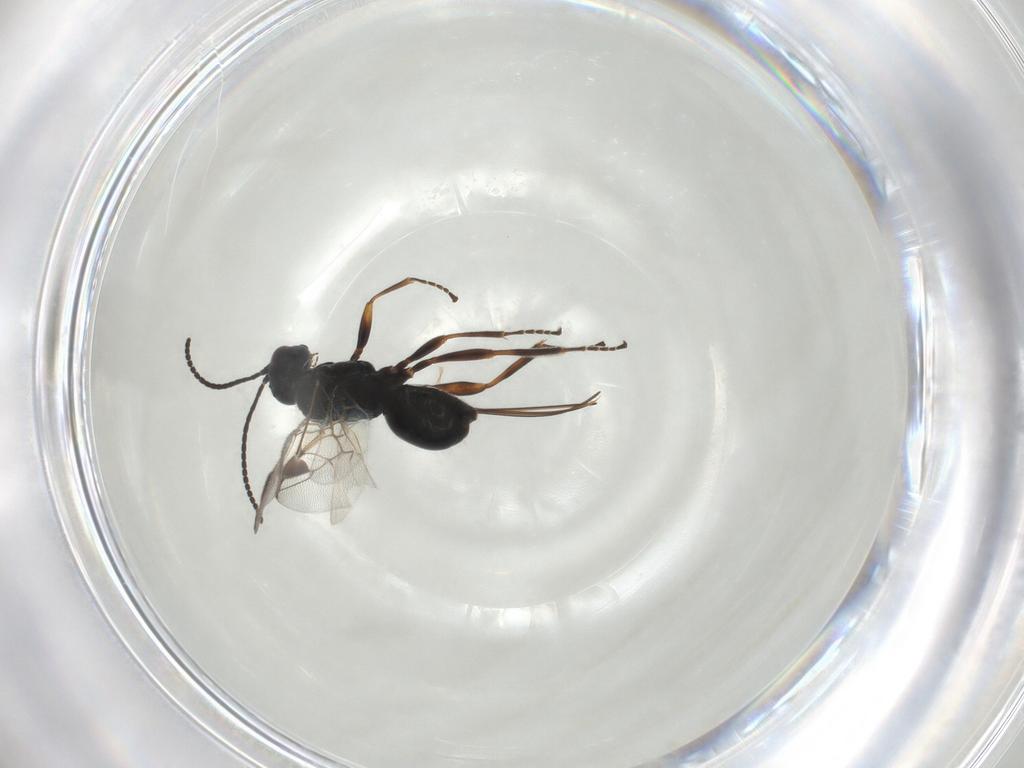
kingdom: Animalia
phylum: Arthropoda
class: Insecta
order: Hymenoptera
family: Braconidae
